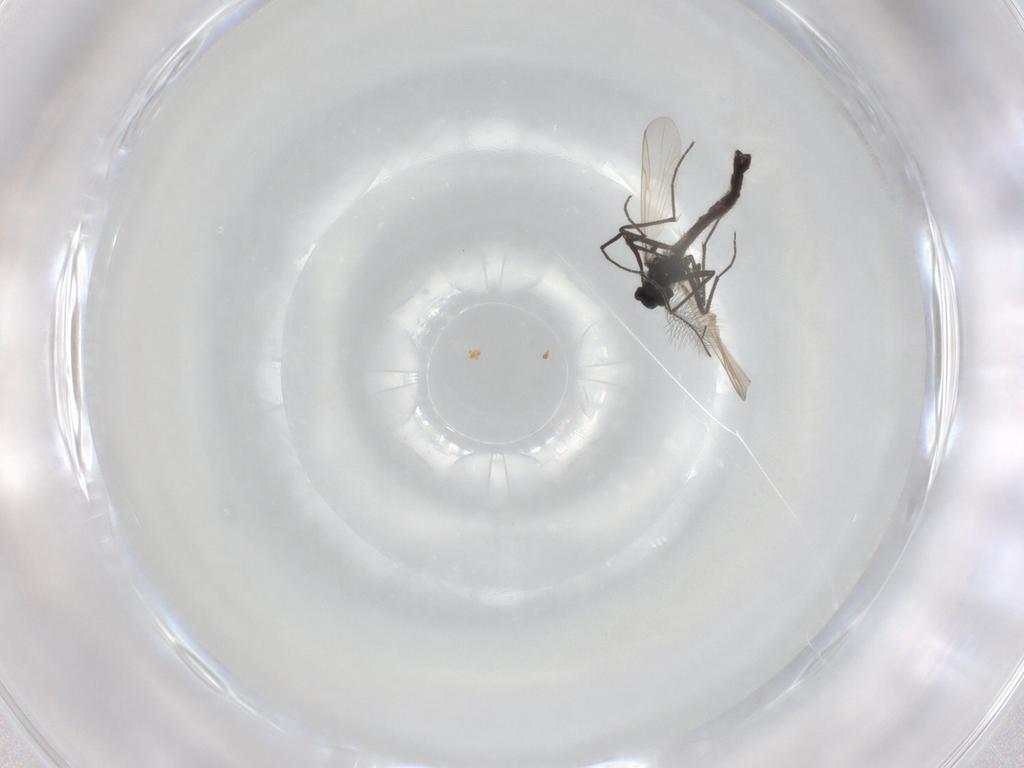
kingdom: Animalia
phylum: Arthropoda
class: Insecta
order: Diptera
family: Chironomidae
